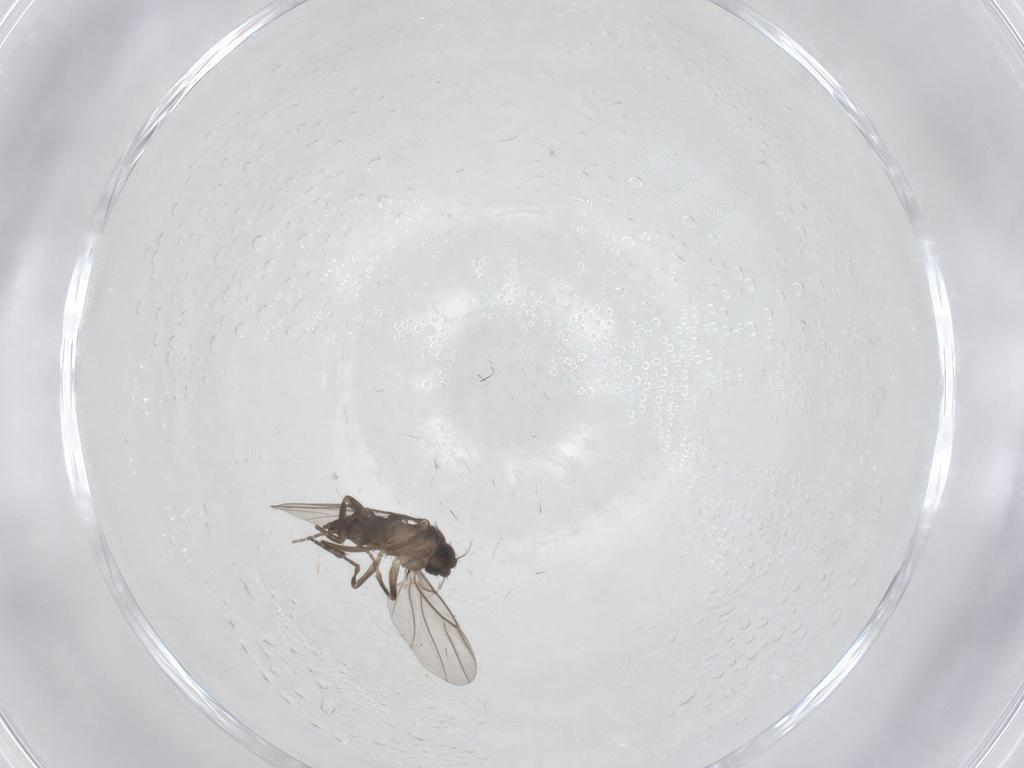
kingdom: Animalia
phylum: Arthropoda
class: Insecta
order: Diptera
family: Phoridae
